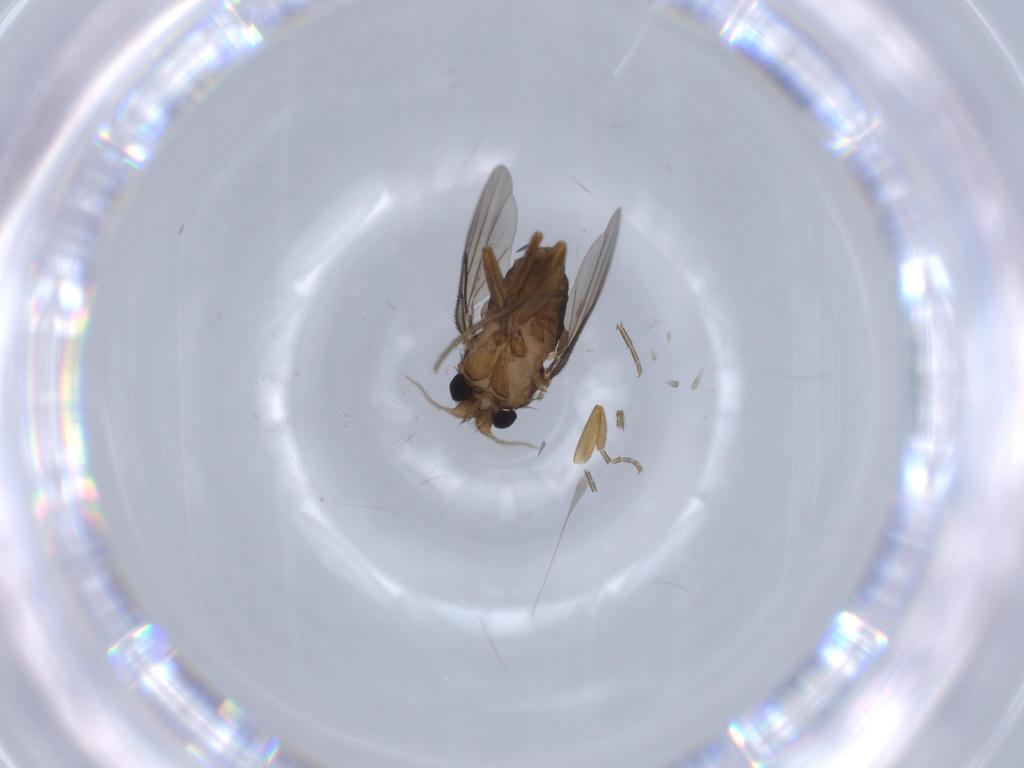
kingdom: Animalia
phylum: Arthropoda
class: Insecta
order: Diptera
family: Phoridae
